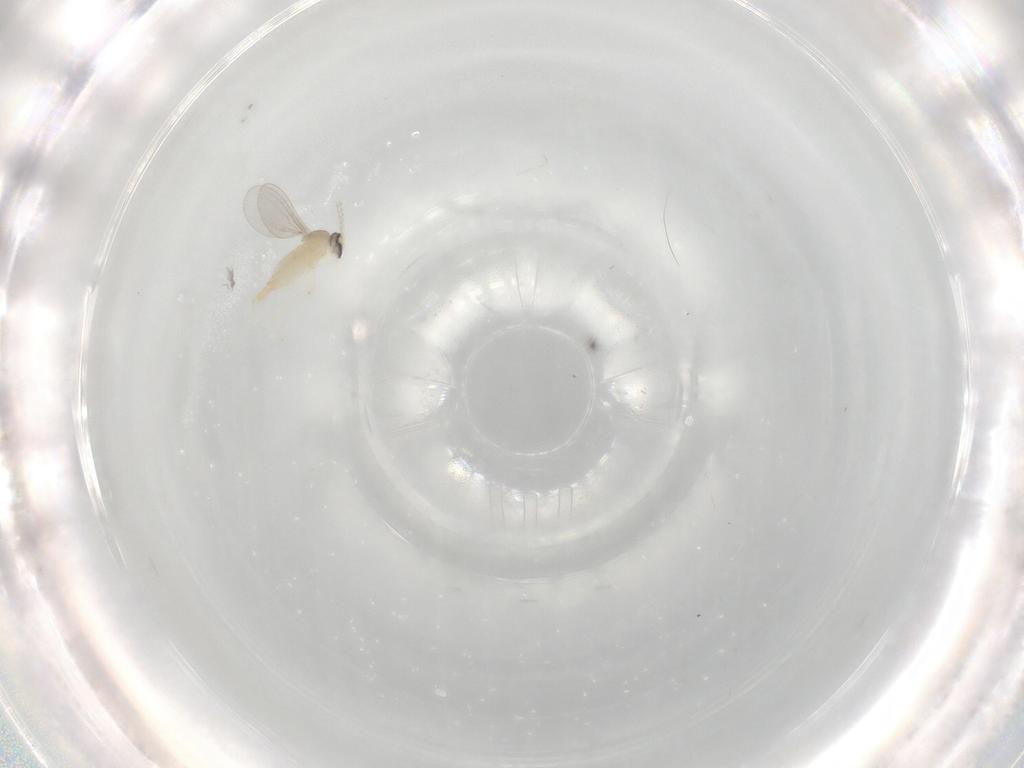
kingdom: Animalia
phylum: Arthropoda
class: Insecta
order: Diptera
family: Cecidomyiidae
